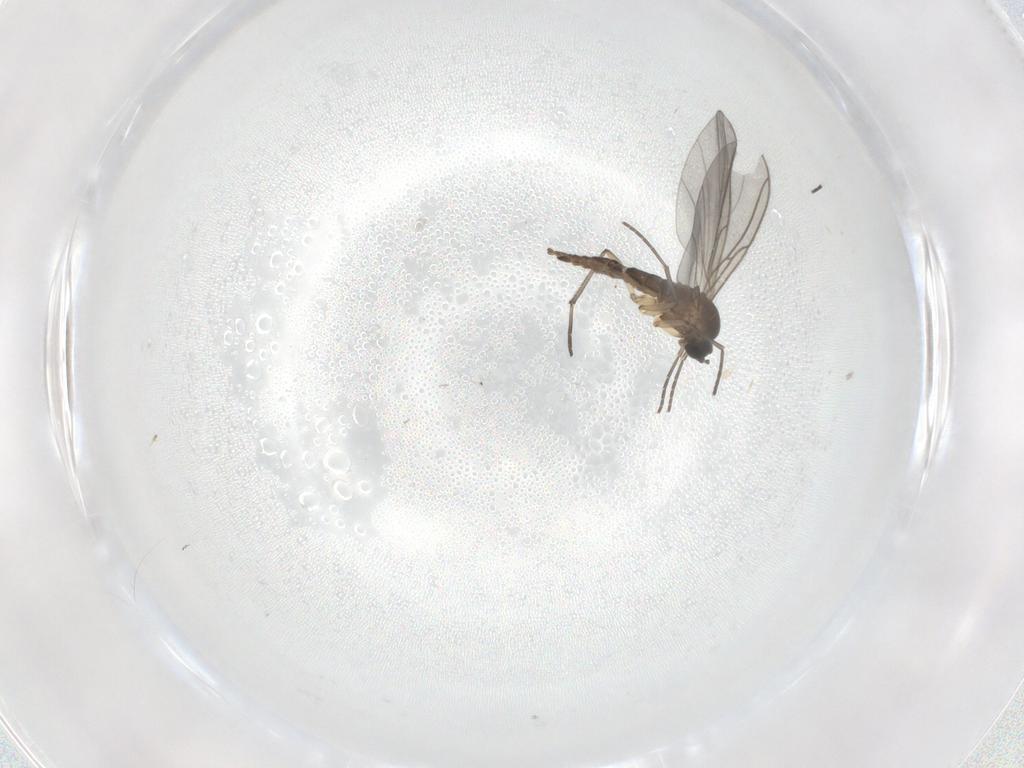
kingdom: Animalia
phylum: Arthropoda
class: Insecta
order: Diptera
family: Sciaridae
